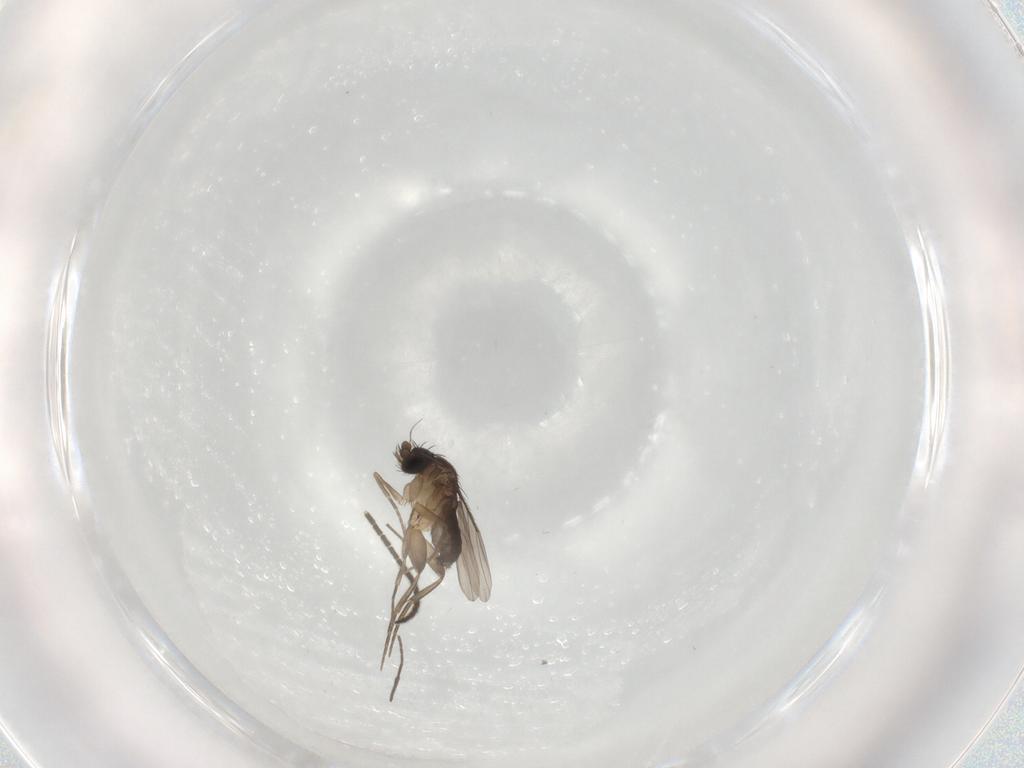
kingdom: Animalia
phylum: Arthropoda
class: Insecta
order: Diptera
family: Phoridae
